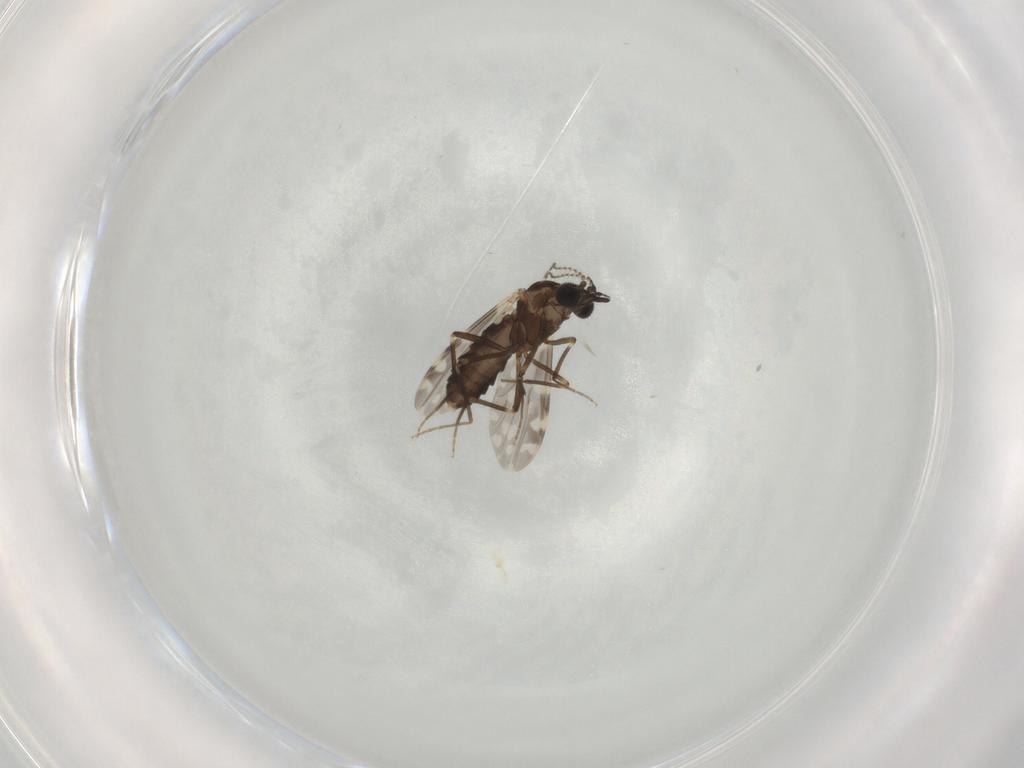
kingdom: Animalia
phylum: Arthropoda
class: Insecta
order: Diptera
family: Ceratopogonidae
